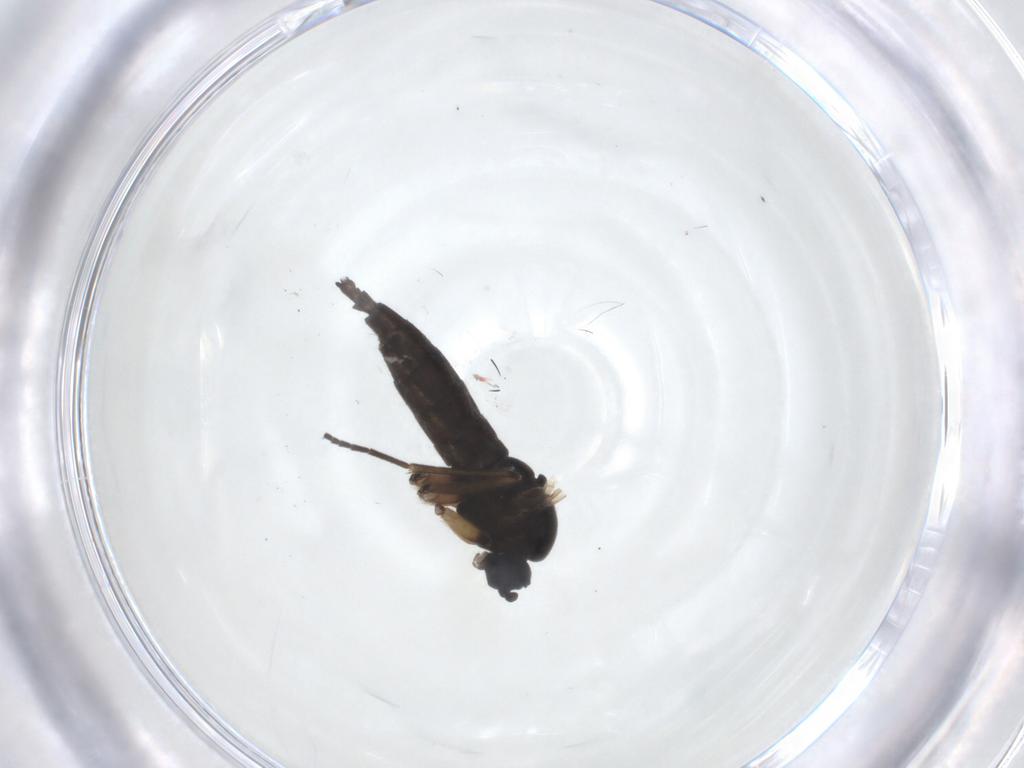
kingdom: Animalia
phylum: Arthropoda
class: Insecta
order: Diptera
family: Sciaridae
